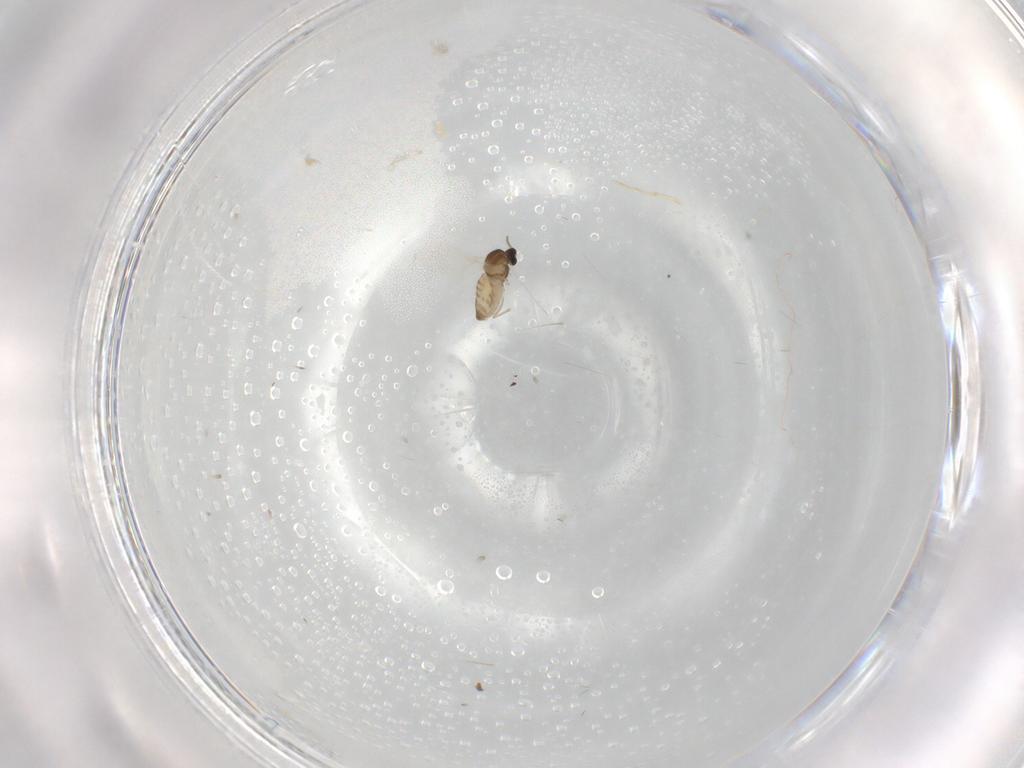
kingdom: Animalia
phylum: Arthropoda
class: Insecta
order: Diptera
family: Cecidomyiidae
